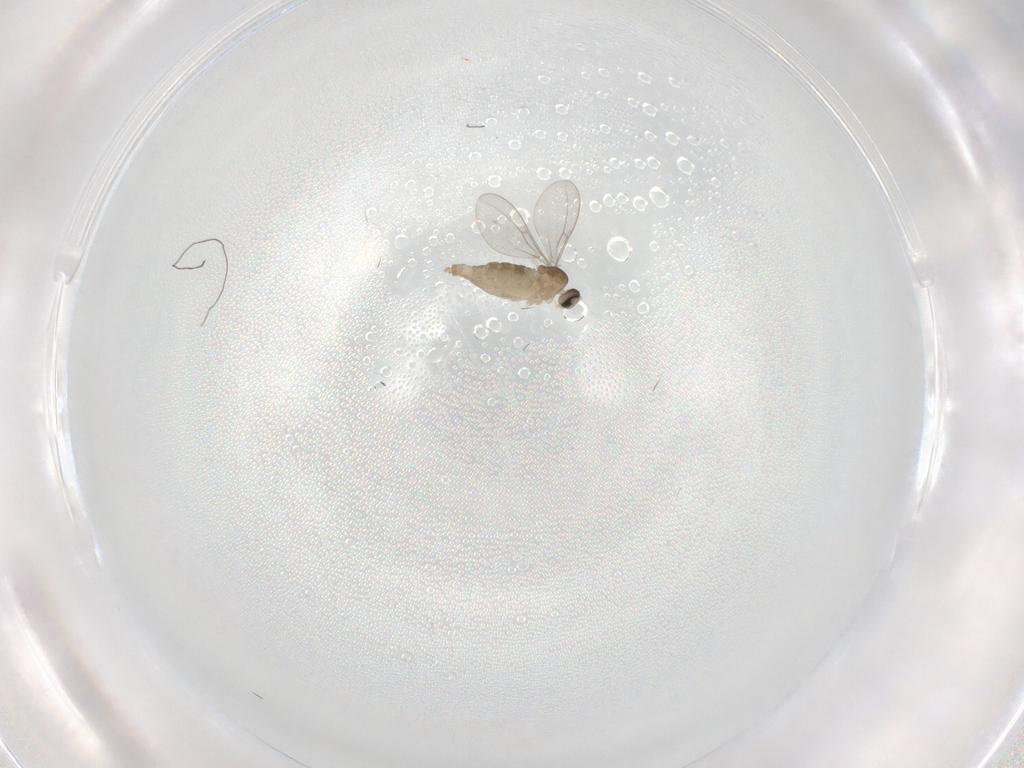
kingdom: Animalia
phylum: Arthropoda
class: Insecta
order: Diptera
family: Cecidomyiidae
